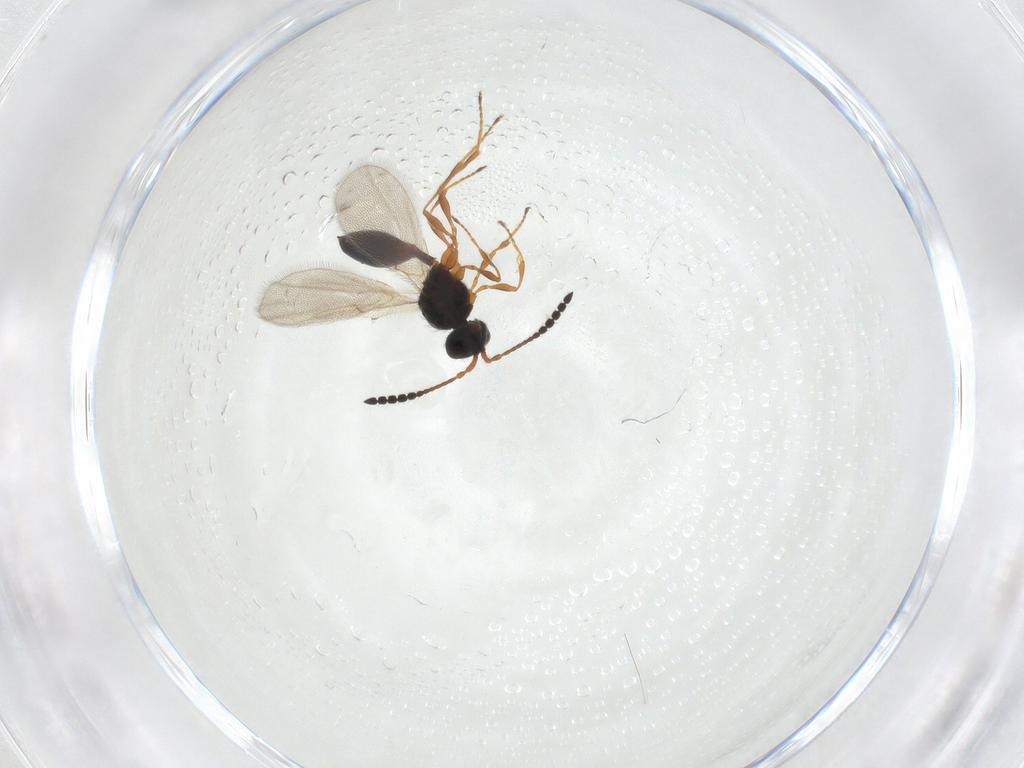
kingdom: Animalia
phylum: Arthropoda
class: Insecta
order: Hymenoptera
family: Diapriidae
